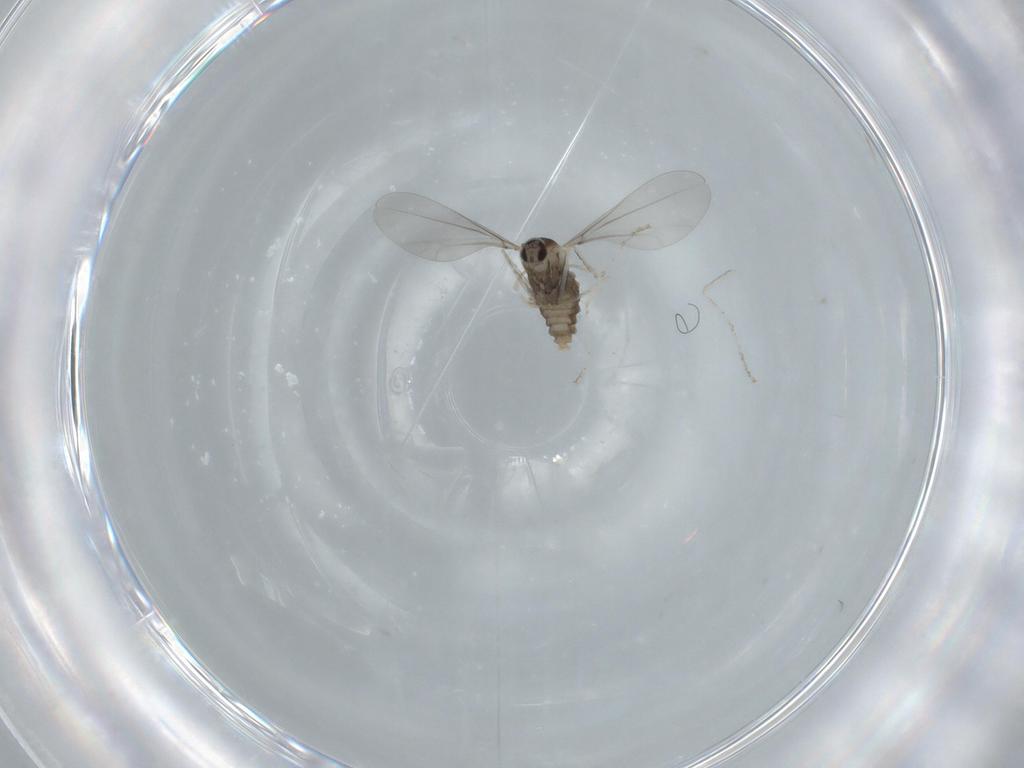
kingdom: Animalia
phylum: Arthropoda
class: Insecta
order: Diptera
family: Cecidomyiidae
